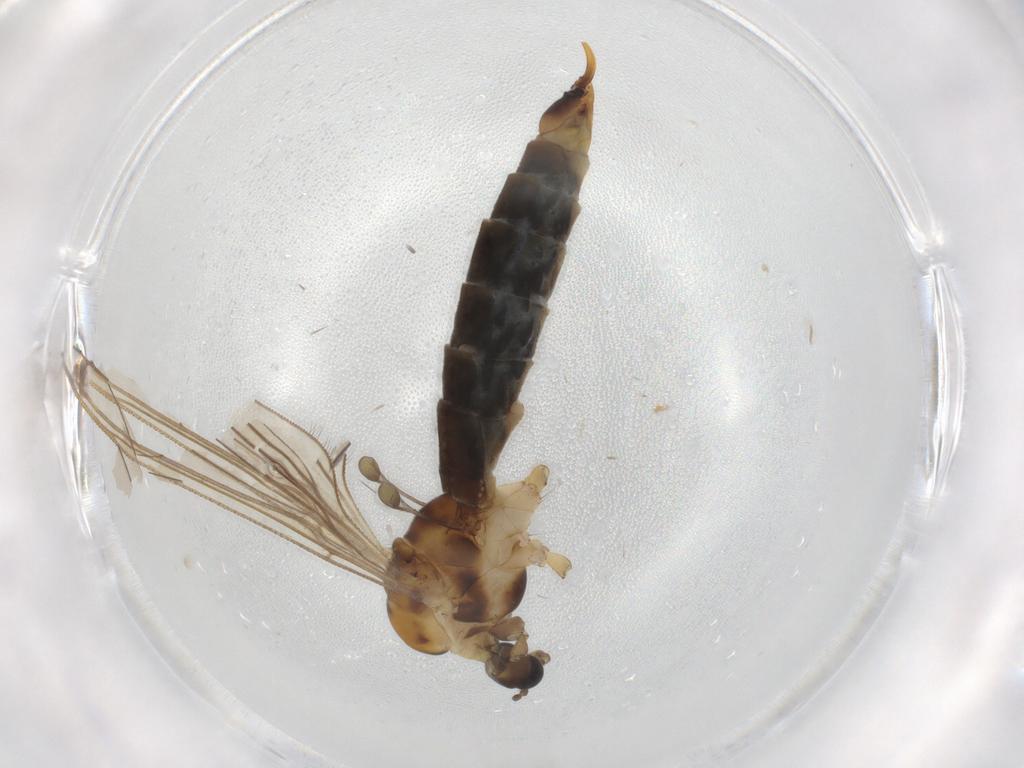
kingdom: Animalia
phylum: Arthropoda
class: Insecta
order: Diptera
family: Limoniidae
